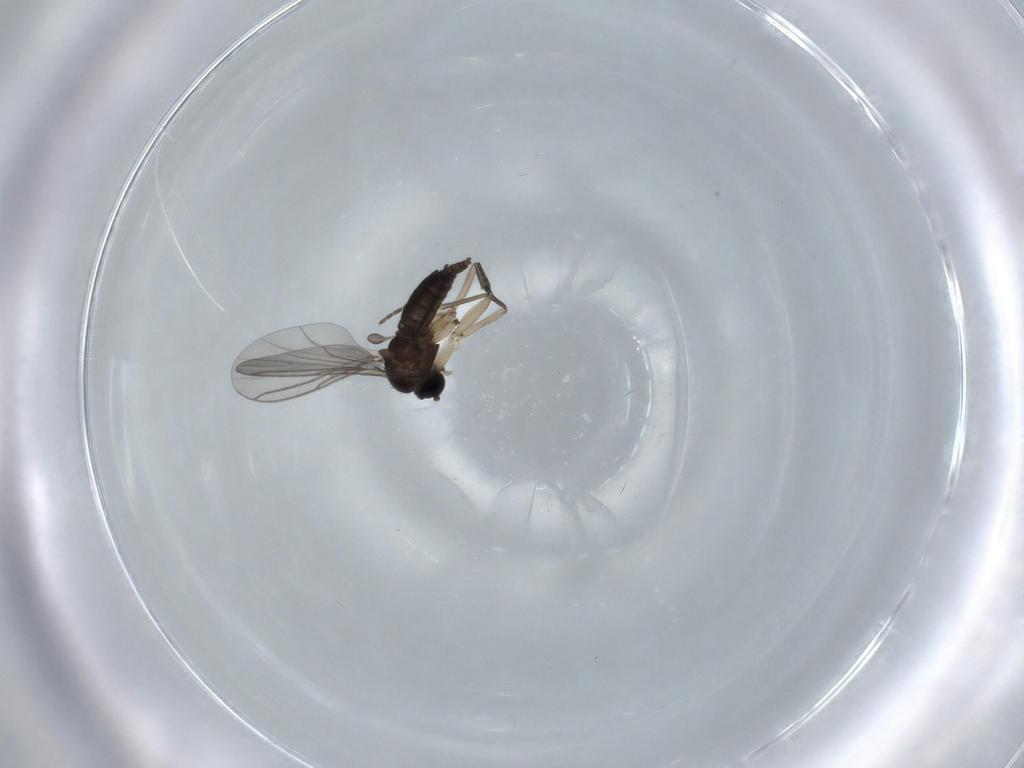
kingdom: Animalia
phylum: Arthropoda
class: Insecta
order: Diptera
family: Sciaridae
